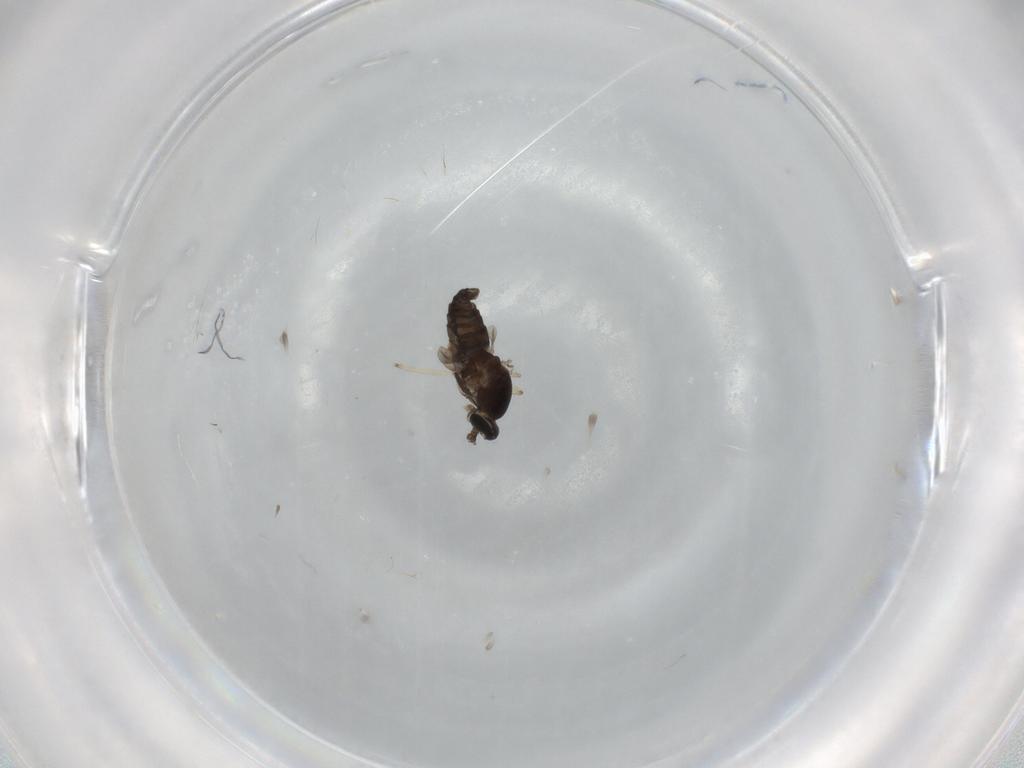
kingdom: Animalia
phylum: Arthropoda
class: Insecta
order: Diptera
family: Cecidomyiidae
